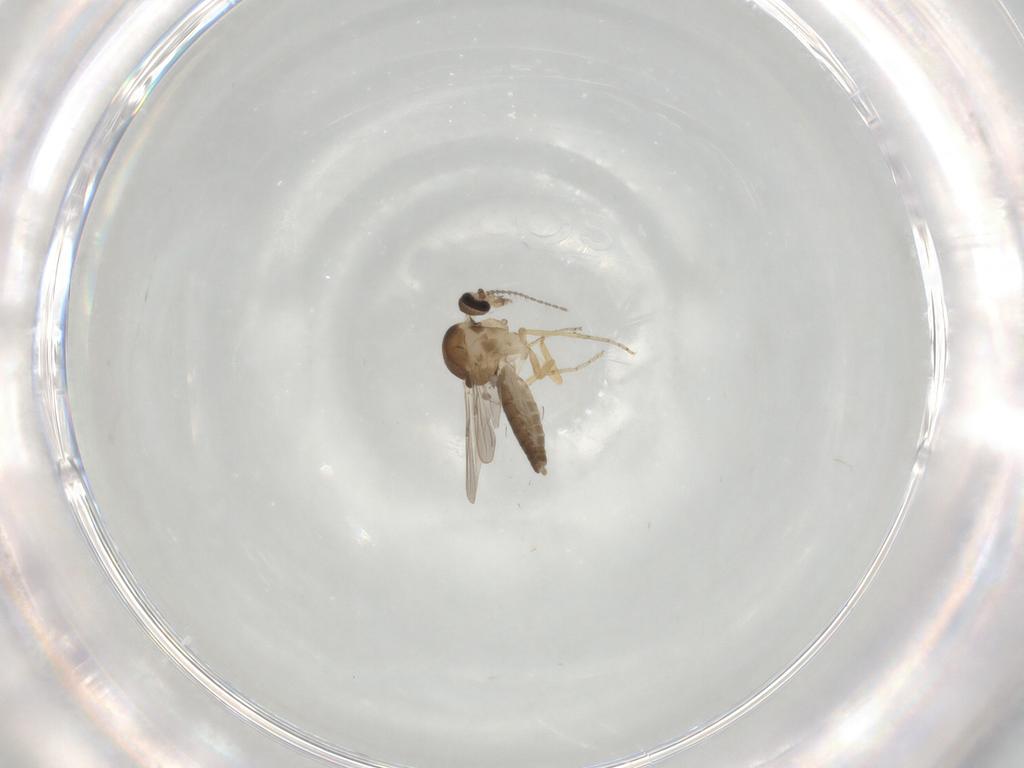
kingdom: Animalia
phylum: Arthropoda
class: Insecta
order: Diptera
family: Ceratopogonidae
